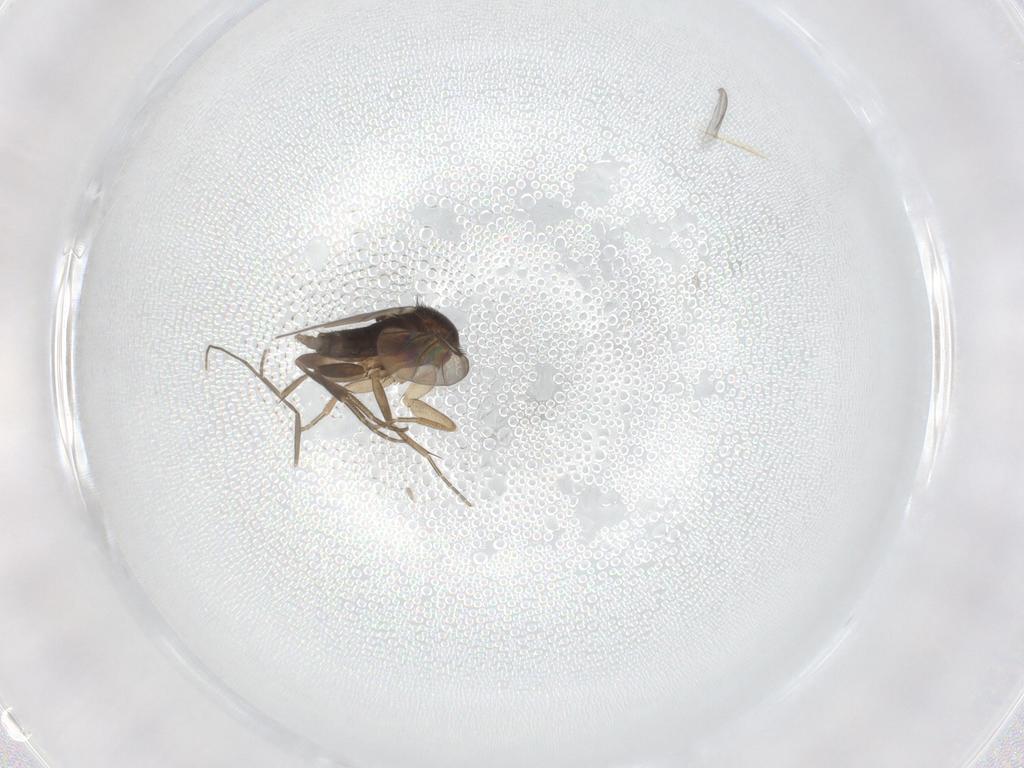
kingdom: Animalia
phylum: Arthropoda
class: Insecta
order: Diptera
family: Chironomidae
